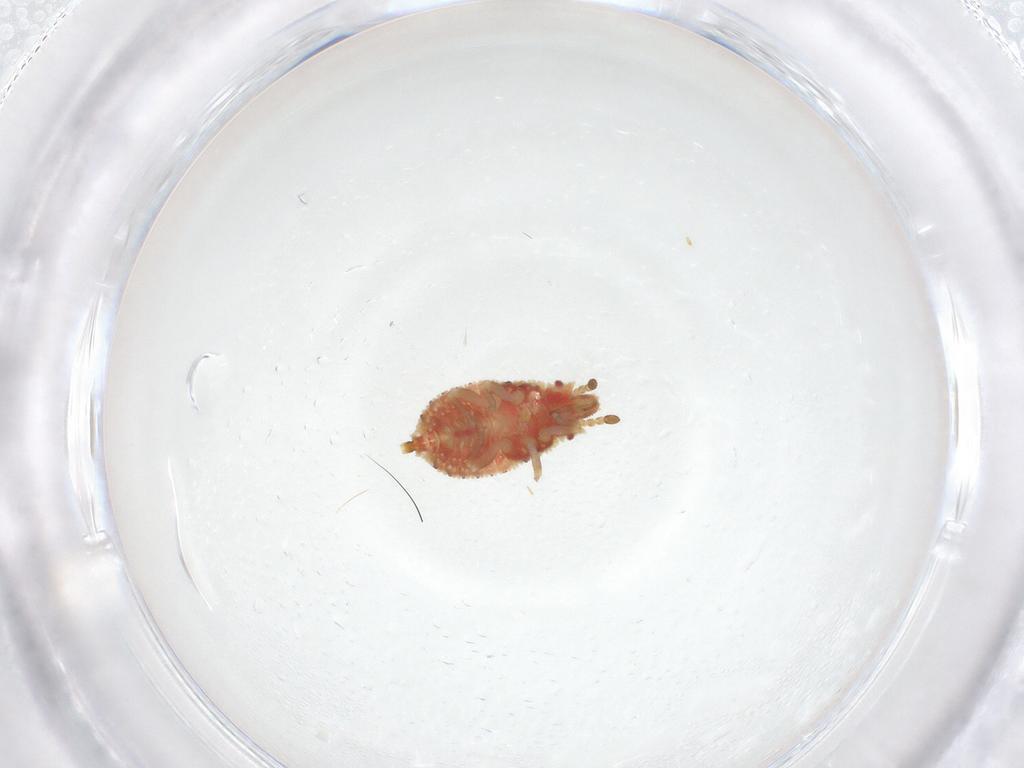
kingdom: Animalia
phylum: Arthropoda
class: Insecta
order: Hemiptera
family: Aradidae
